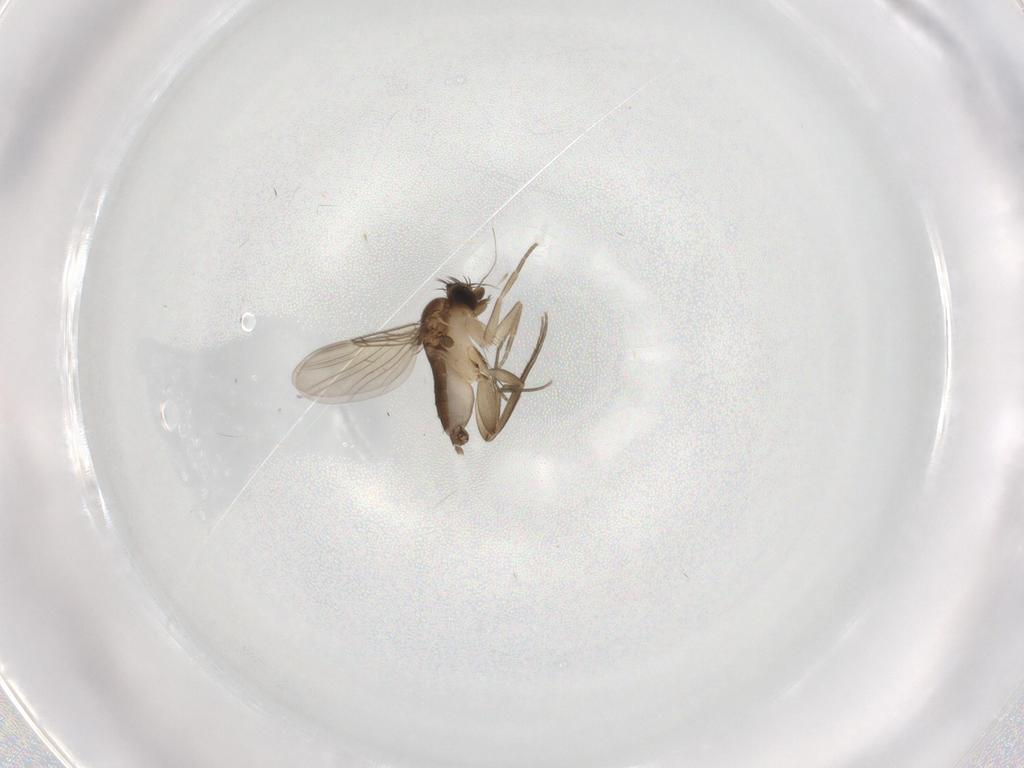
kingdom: Animalia
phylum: Arthropoda
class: Insecta
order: Diptera
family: Phoridae
